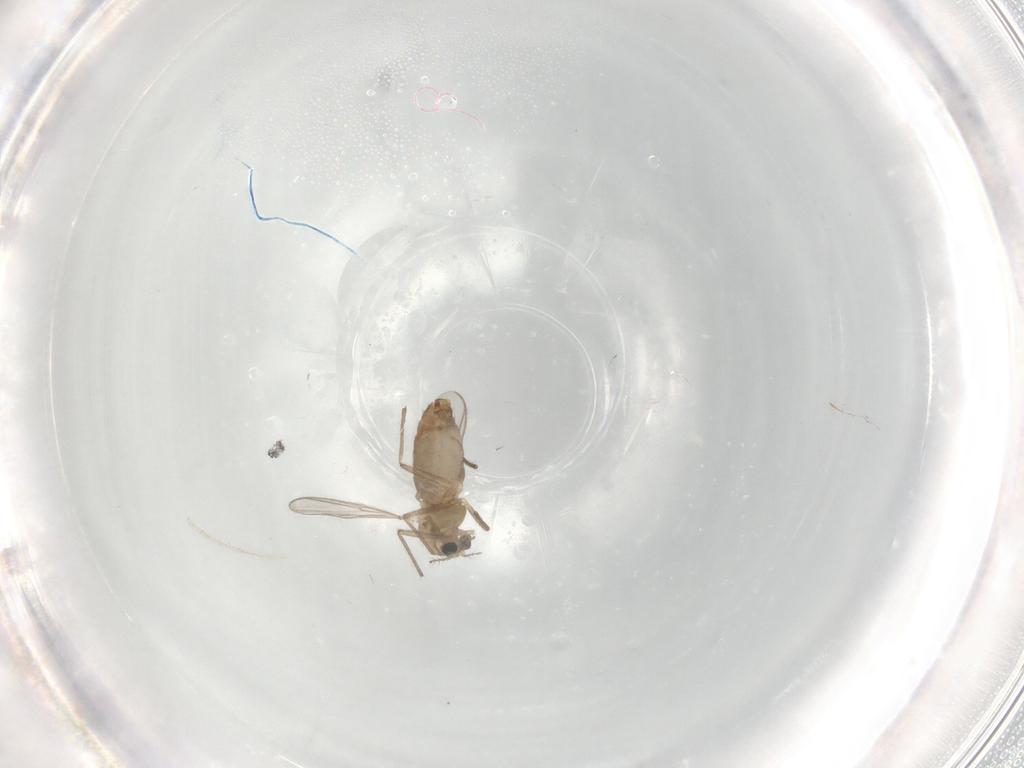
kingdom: Animalia
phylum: Arthropoda
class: Insecta
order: Diptera
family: Chironomidae
